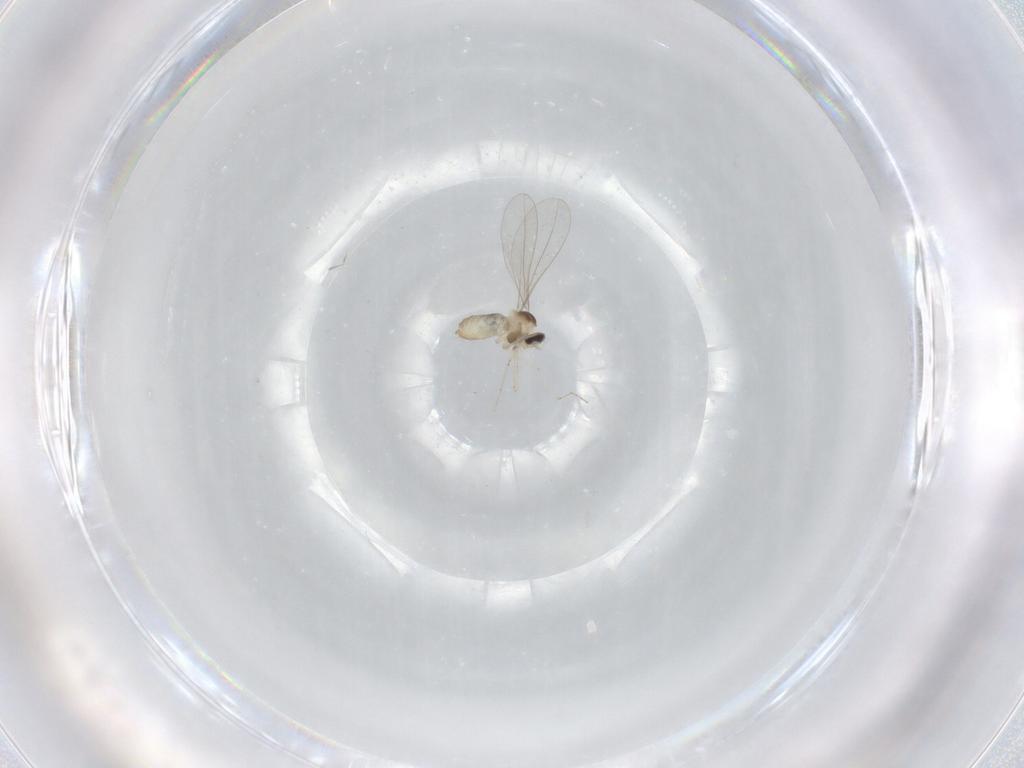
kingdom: Animalia
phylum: Arthropoda
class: Insecta
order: Diptera
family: Cecidomyiidae
